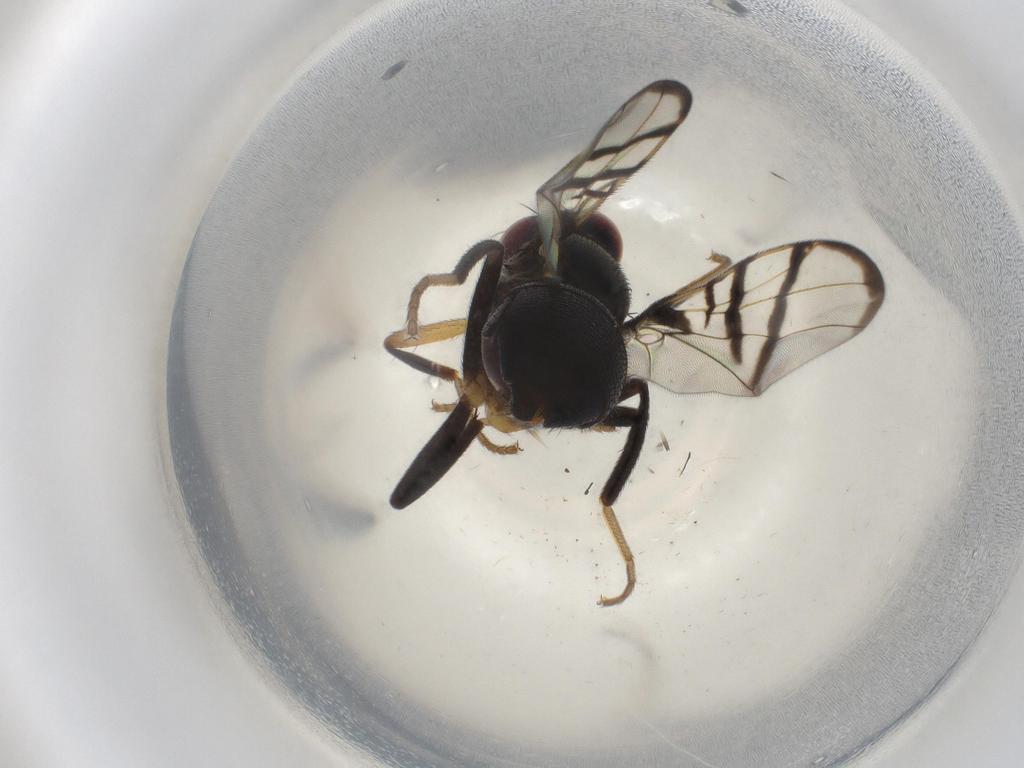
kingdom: Animalia
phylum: Arthropoda
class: Insecta
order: Diptera
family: Platystomatidae
